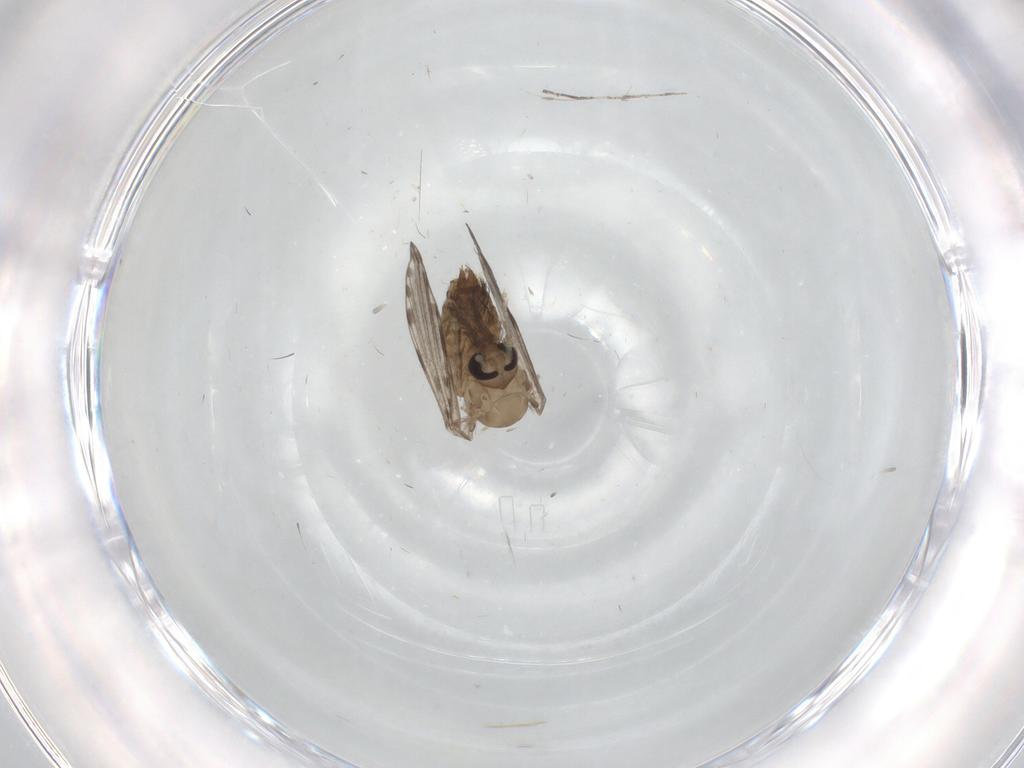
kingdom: Animalia
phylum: Arthropoda
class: Insecta
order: Diptera
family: Psychodidae
